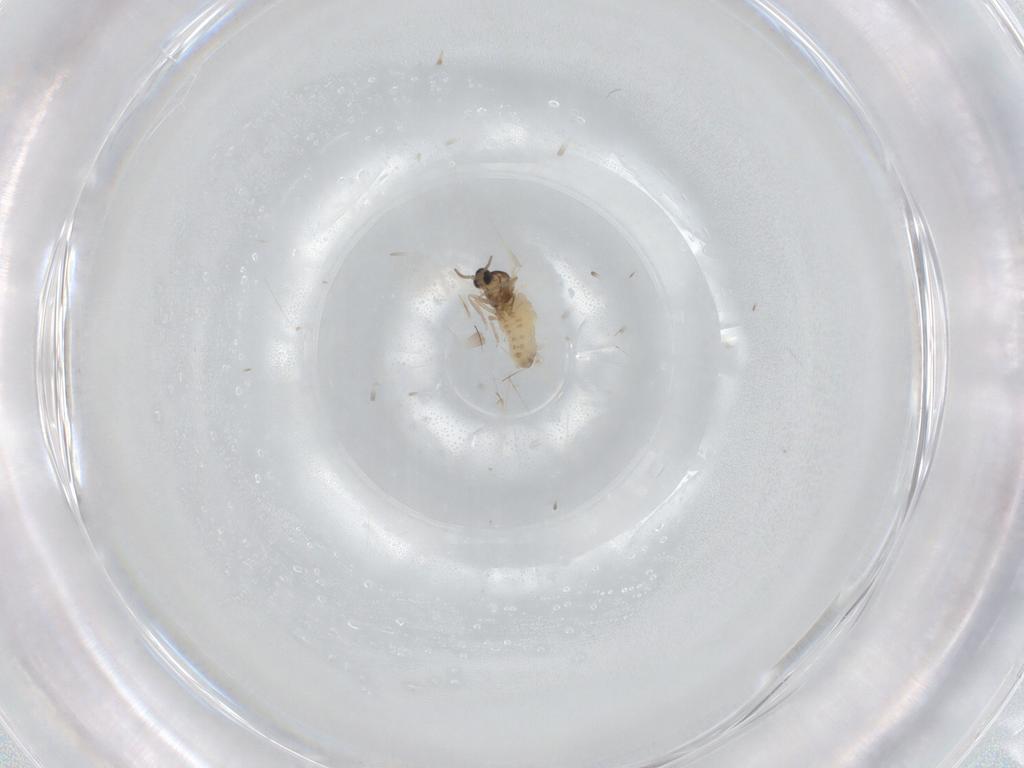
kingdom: Animalia
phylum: Arthropoda
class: Insecta
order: Diptera
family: Cecidomyiidae
